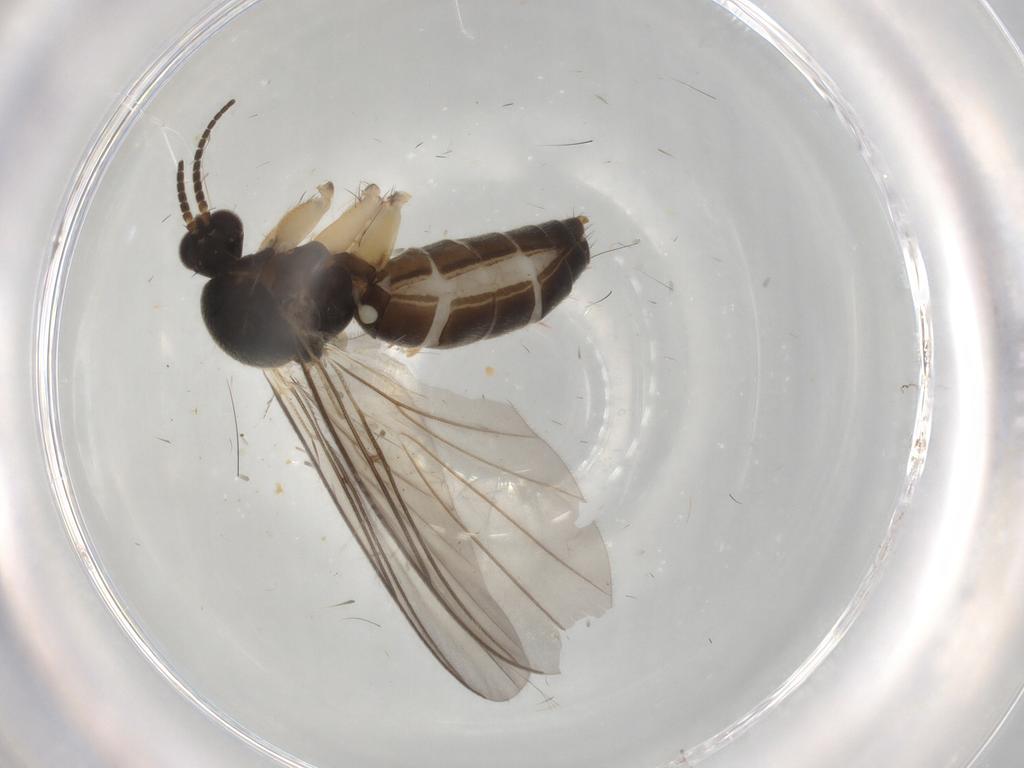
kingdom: Animalia
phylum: Arthropoda
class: Insecta
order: Diptera
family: Mycetophilidae
